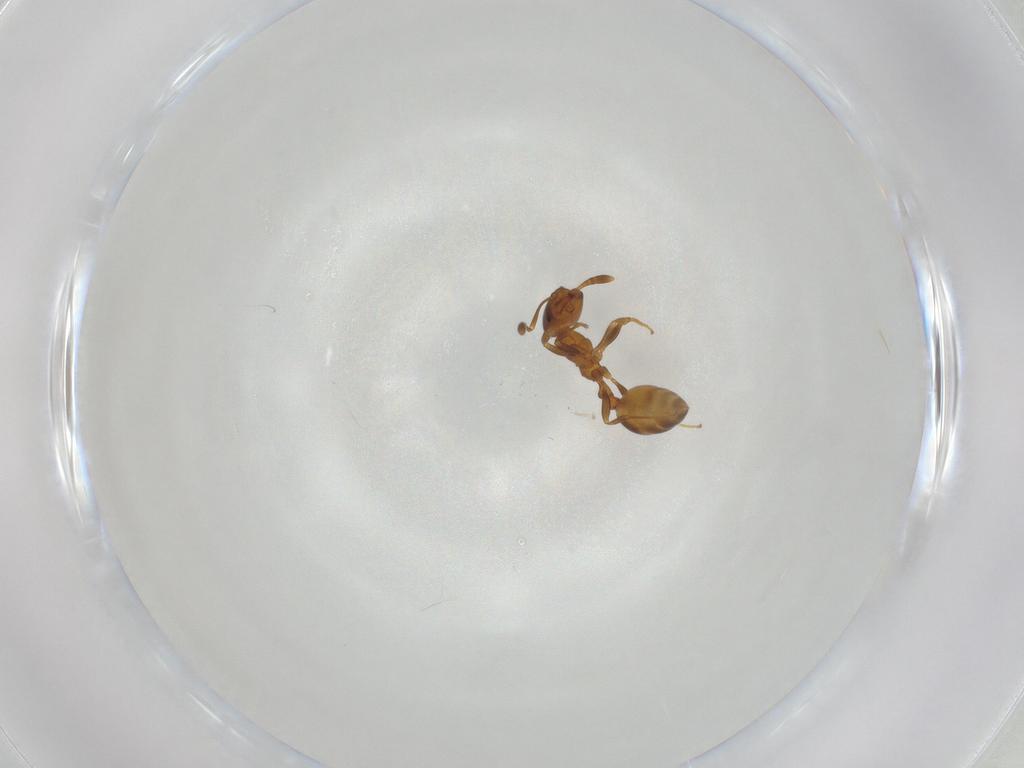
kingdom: Animalia
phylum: Arthropoda
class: Insecta
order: Hymenoptera
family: Formicidae
